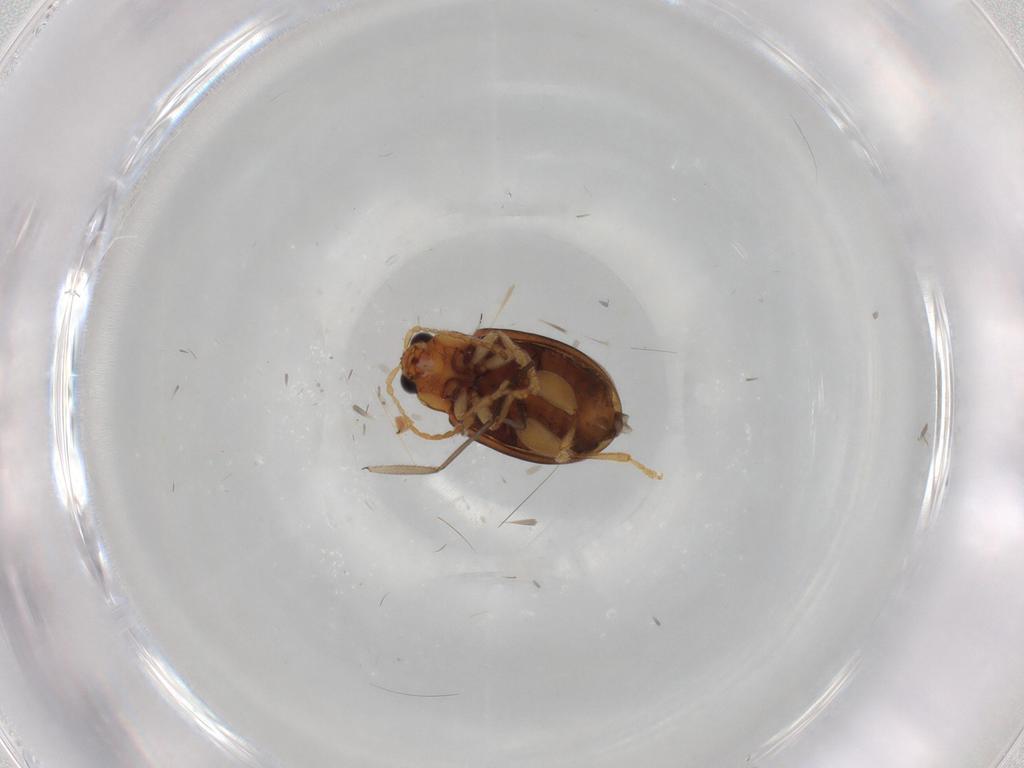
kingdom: Animalia
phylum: Arthropoda
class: Insecta
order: Coleoptera
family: Chrysomelidae
